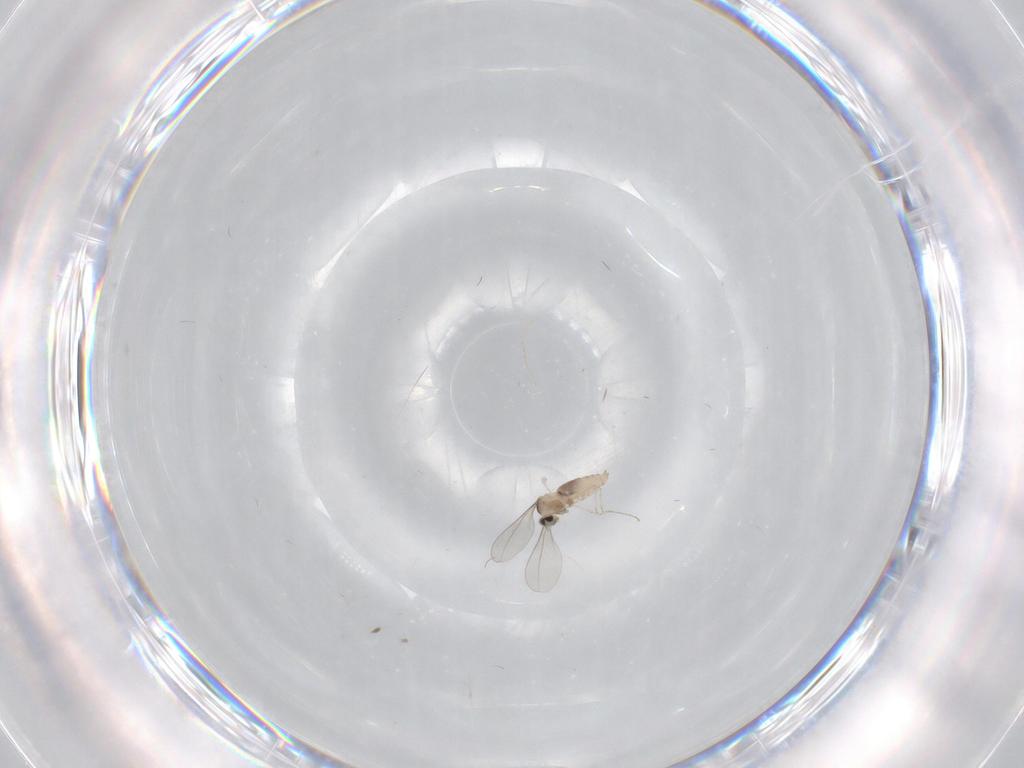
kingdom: Animalia
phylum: Arthropoda
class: Insecta
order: Diptera
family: Cecidomyiidae
